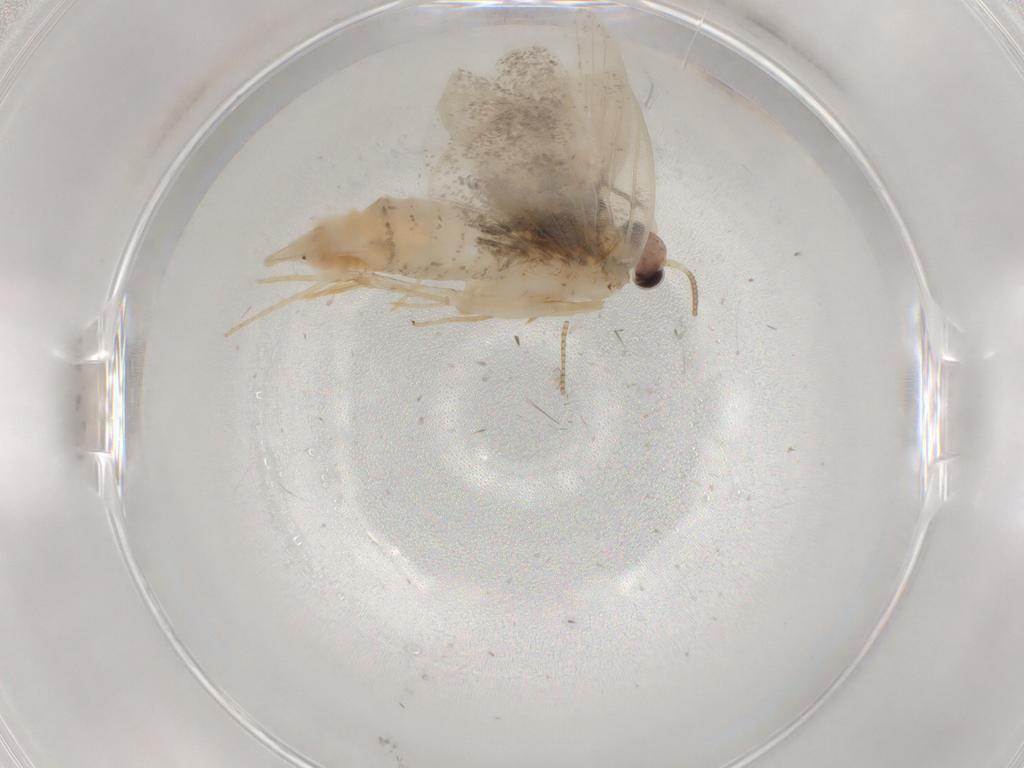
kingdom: Animalia
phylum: Arthropoda
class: Insecta
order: Lepidoptera
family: Psychidae
